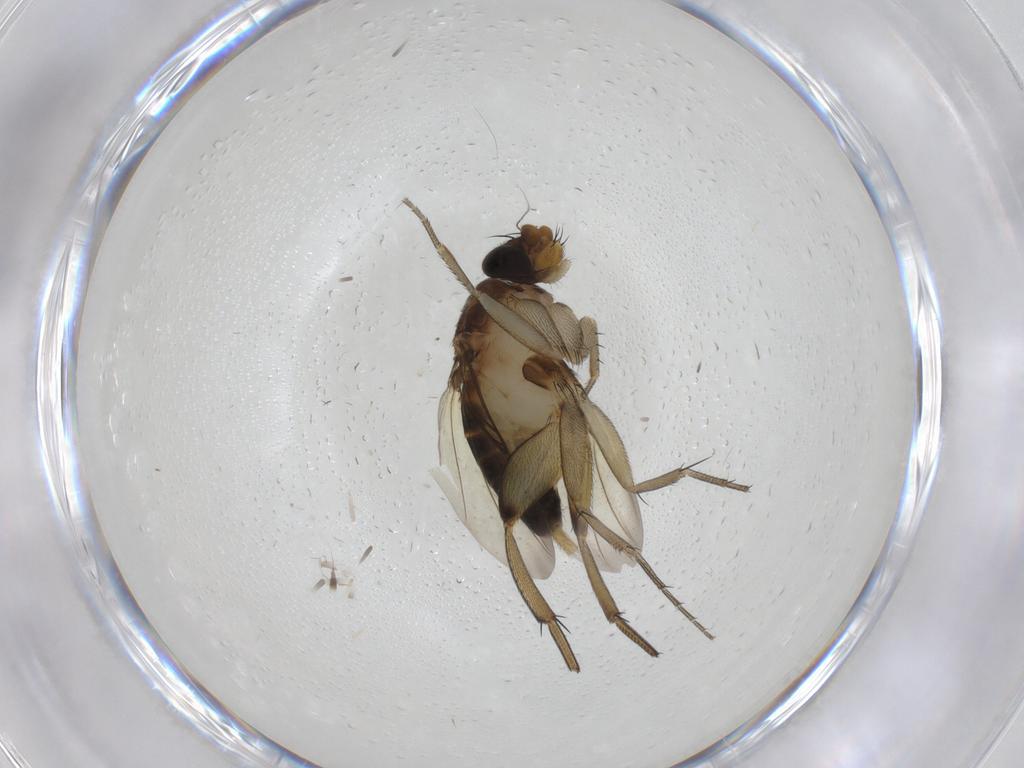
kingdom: Animalia
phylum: Arthropoda
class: Insecta
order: Diptera
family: Phoridae
